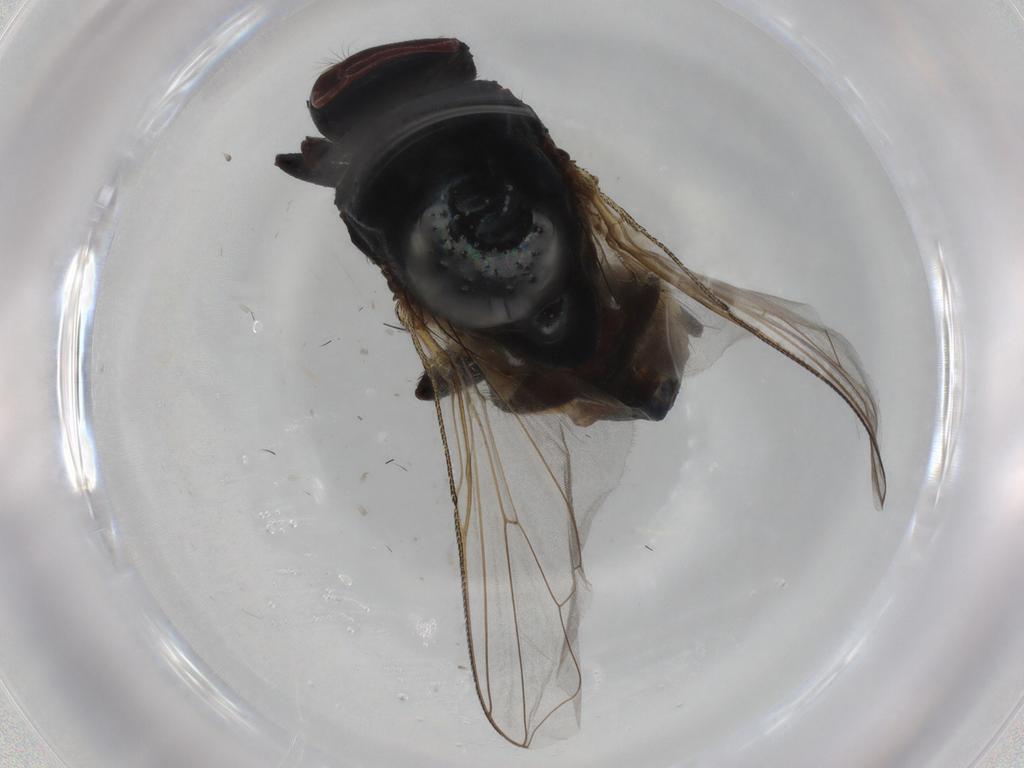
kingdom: Animalia
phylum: Arthropoda
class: Insecta
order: Diptera
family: Muscidae
